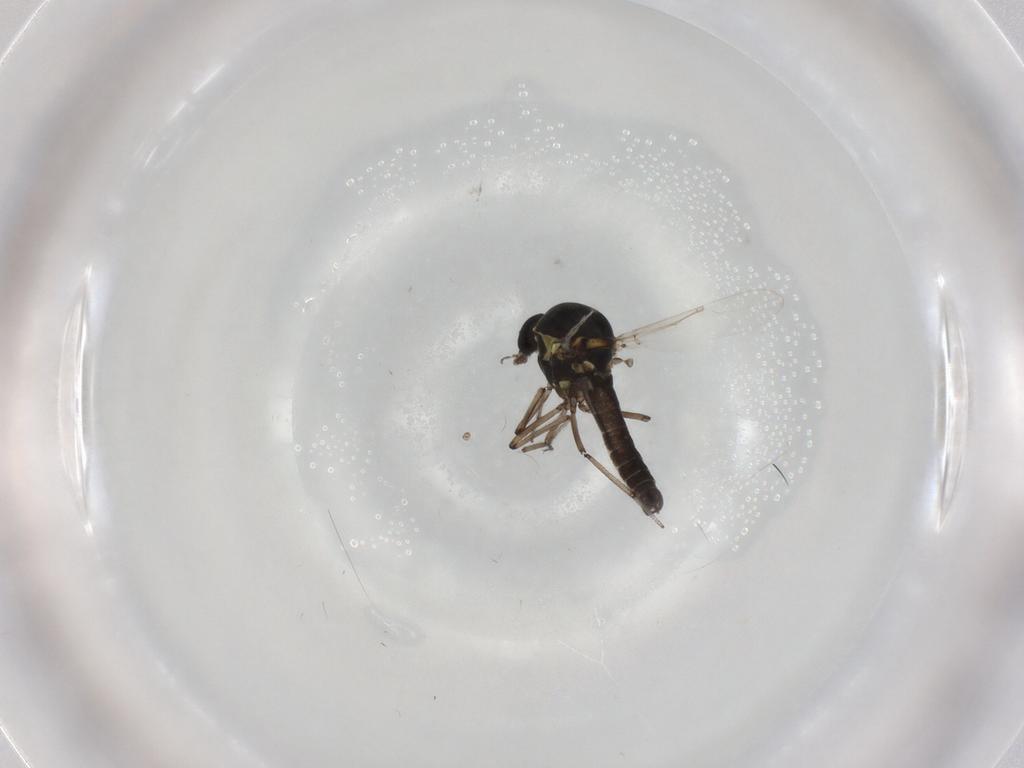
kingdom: Animalia
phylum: Arthropoda
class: Insecta
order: Diptera
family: Ceratopogonidae
